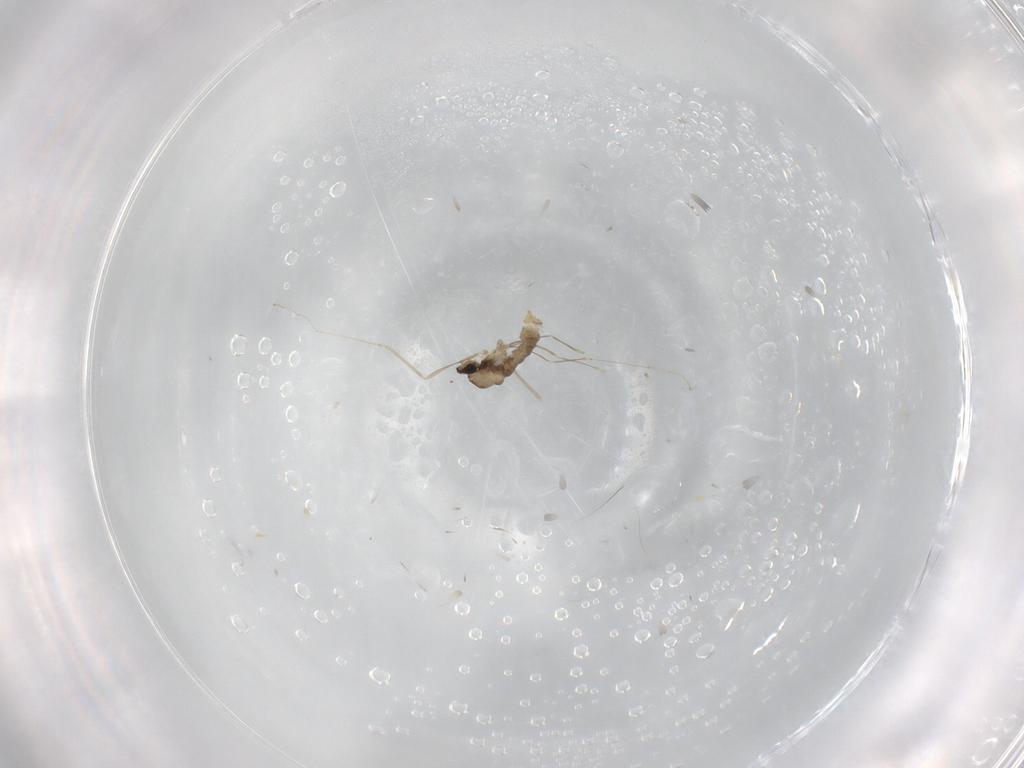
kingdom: Animalia
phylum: Arthropoda
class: Insecta
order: Diptera
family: Cecidomyiidae
